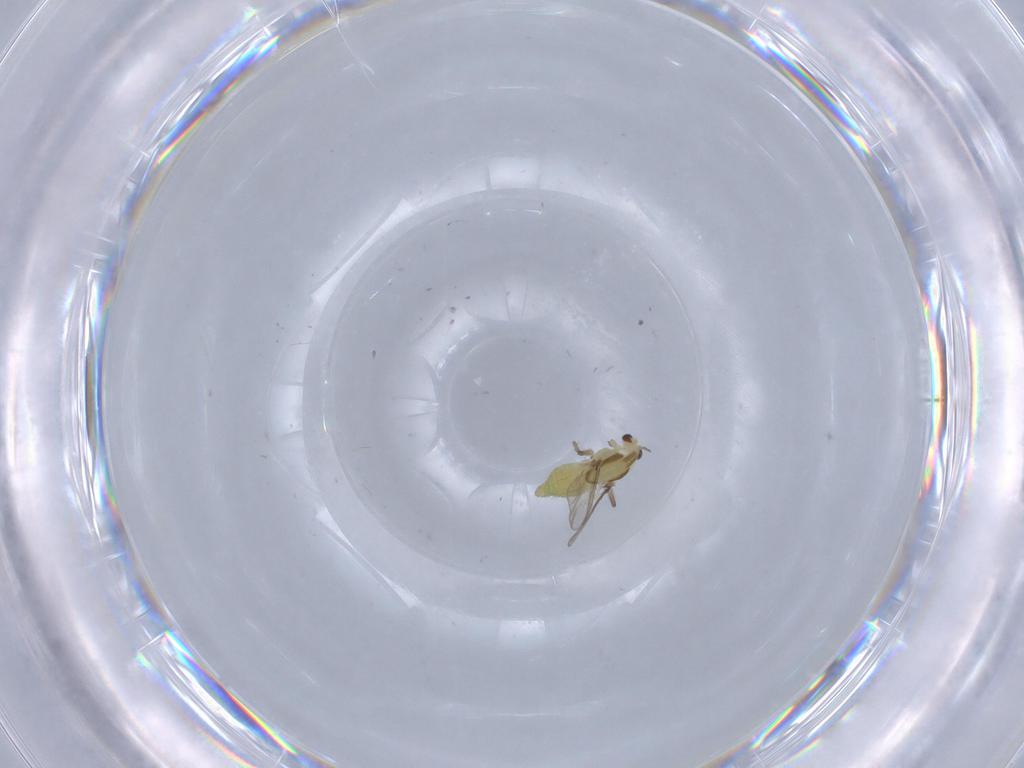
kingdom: Animalia
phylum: Arthropoda
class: Insecta
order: Diptera
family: Chironomidae
